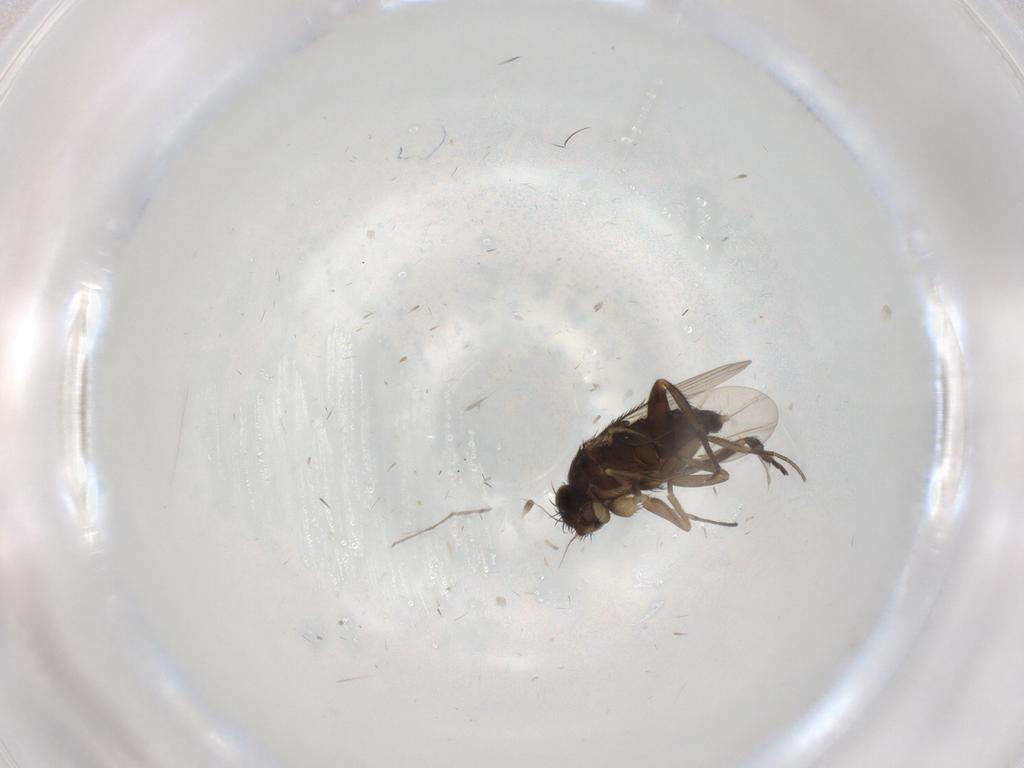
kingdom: Animalia
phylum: Arthropoda
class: Insecta
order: Diptera
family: Phoridae
